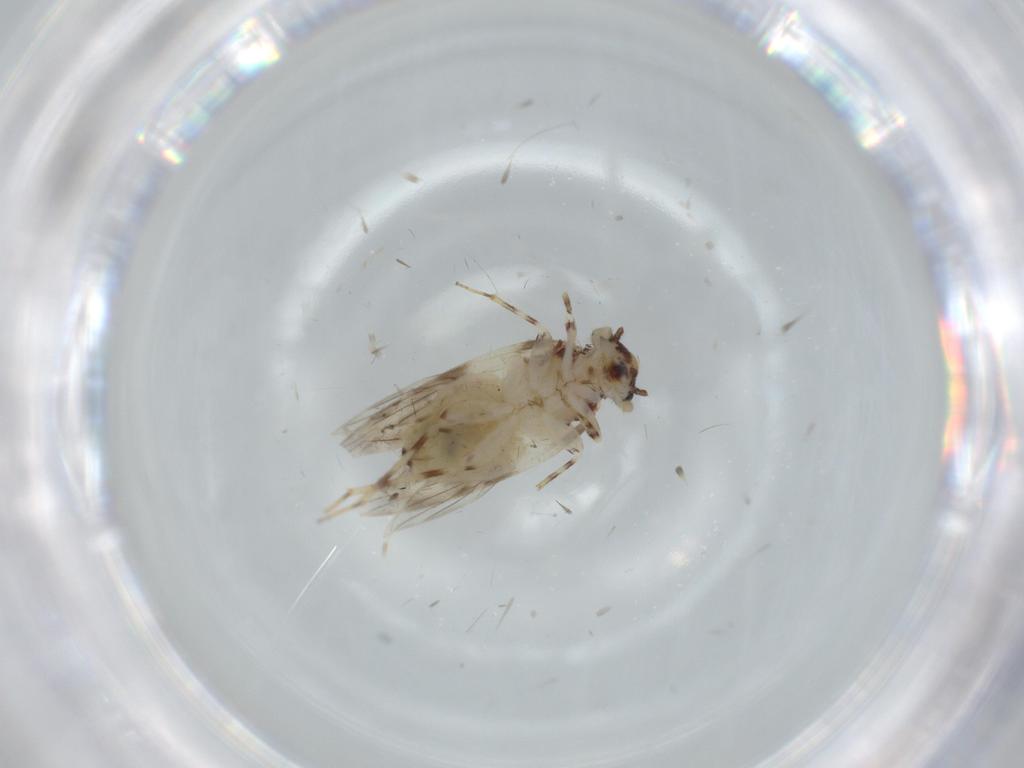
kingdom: Animalia
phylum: Arthropoda
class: Insecta
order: Psocodea
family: Lepidopsocidae
